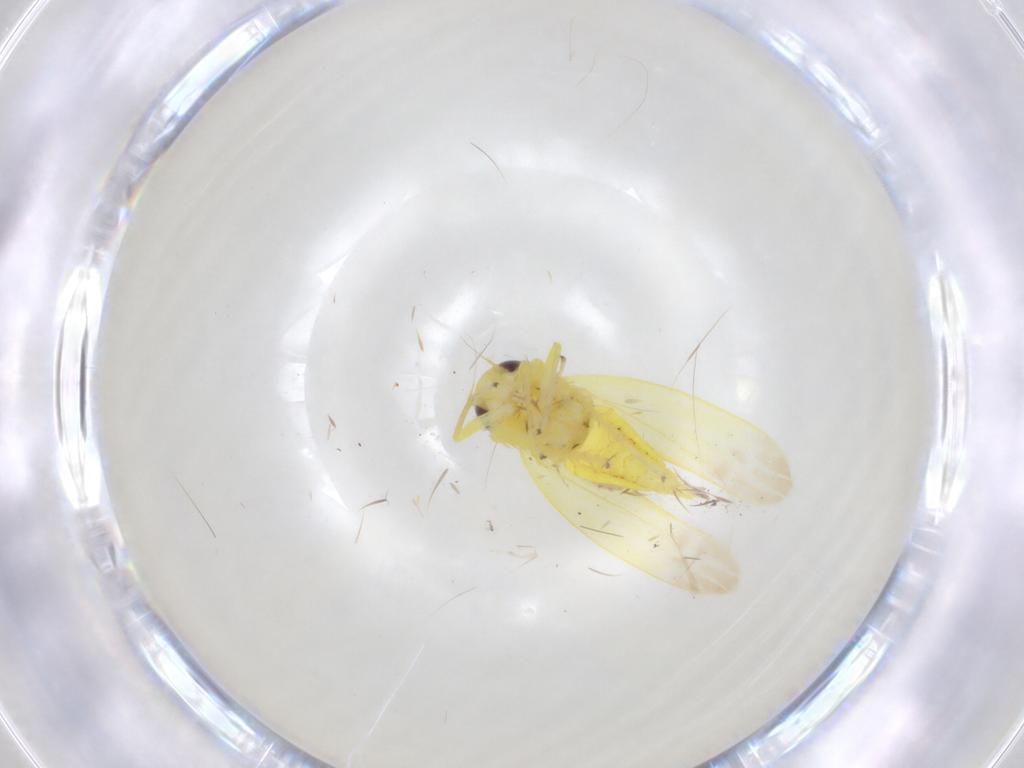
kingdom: Animalia
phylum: Arthropoda
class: Insecta
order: Hemiptera
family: Cicadellidae
